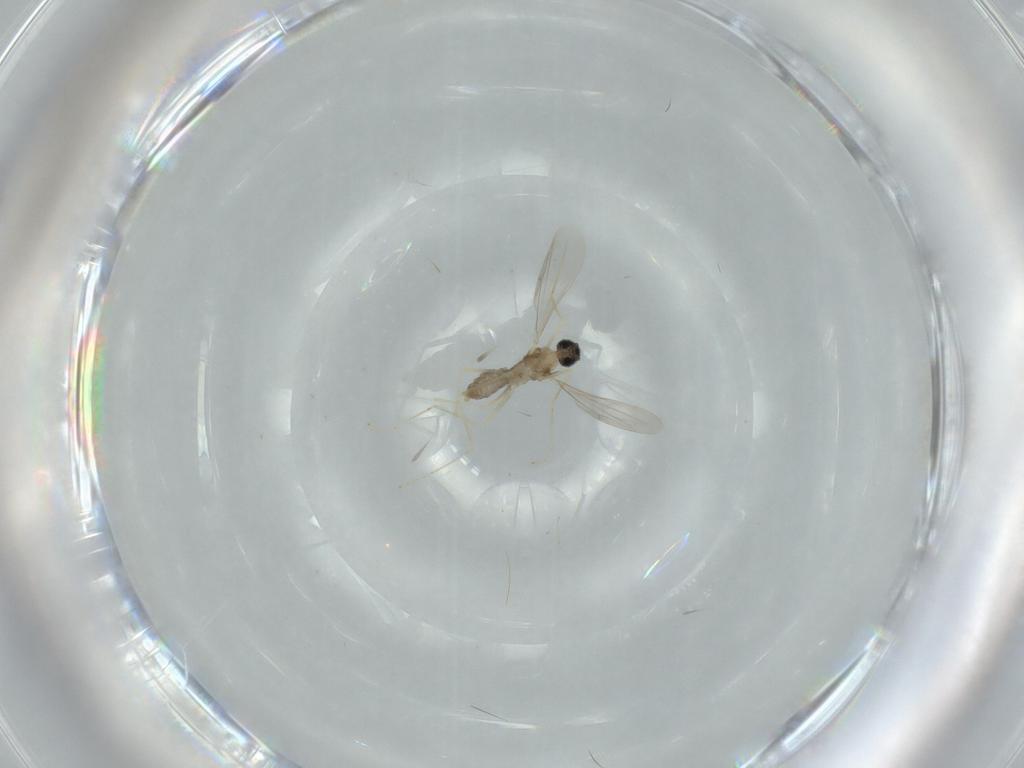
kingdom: Animalia
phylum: Arthropoda
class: Insecta
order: Diptera
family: Cecidomyiidae
